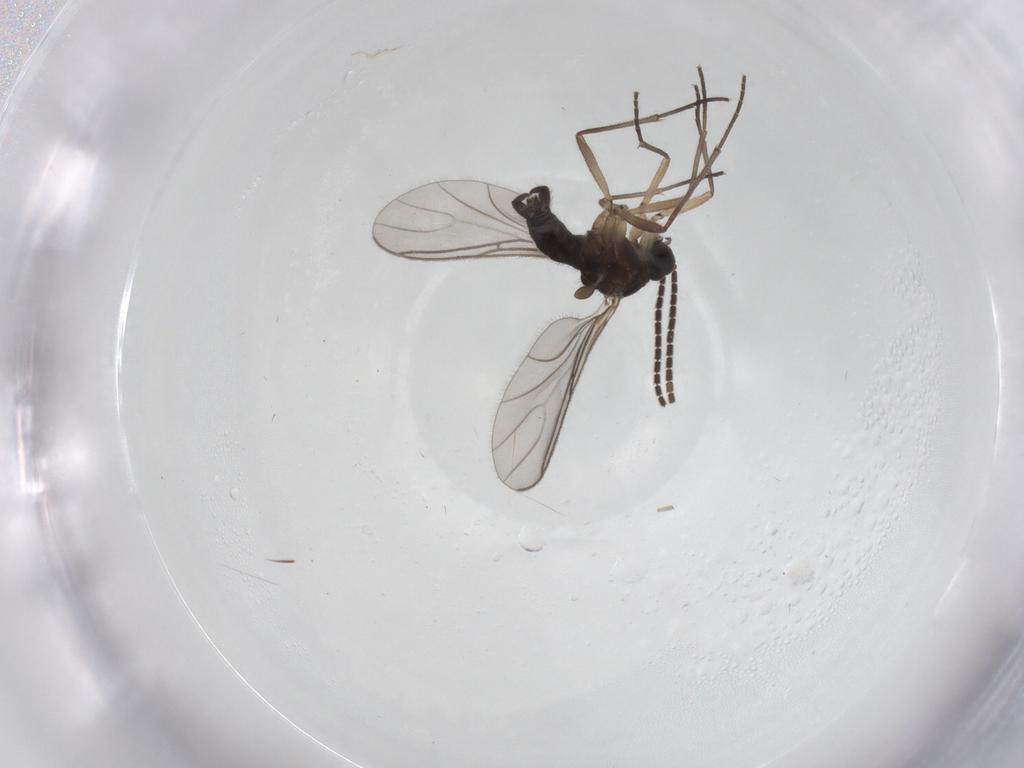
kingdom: Animalia
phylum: Arthropoda
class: Insecta
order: Diptera
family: Sciaridae
